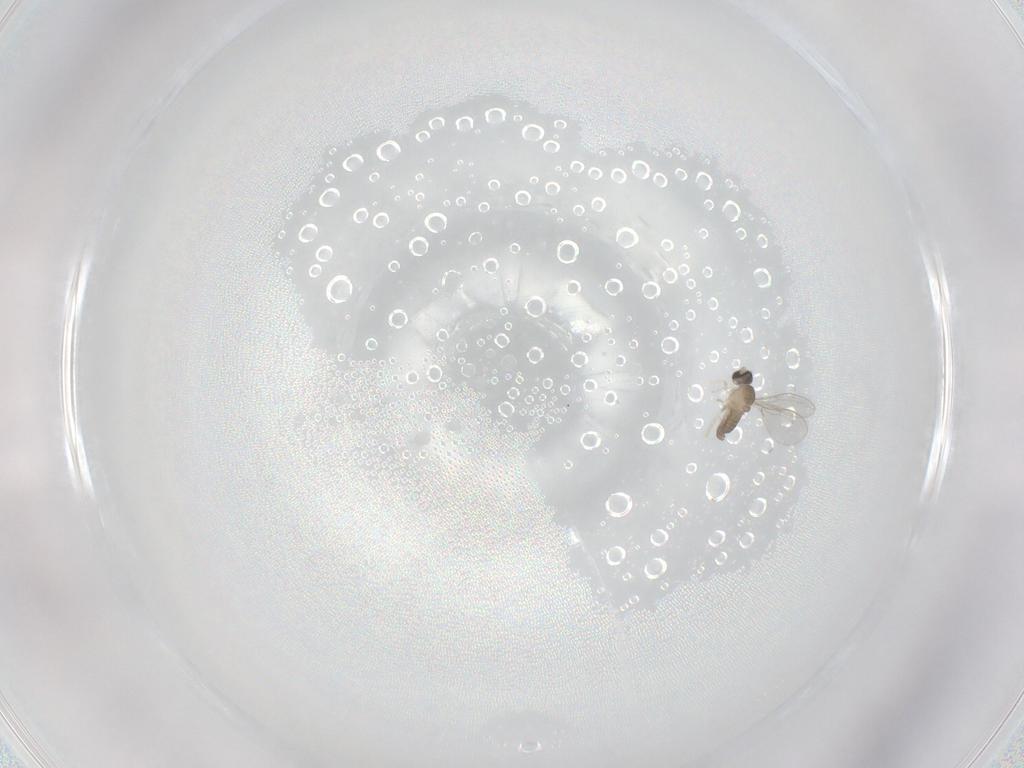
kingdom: Animalia
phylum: Arthropoda
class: Insecta
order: Diptera
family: Cecidomyiidae
